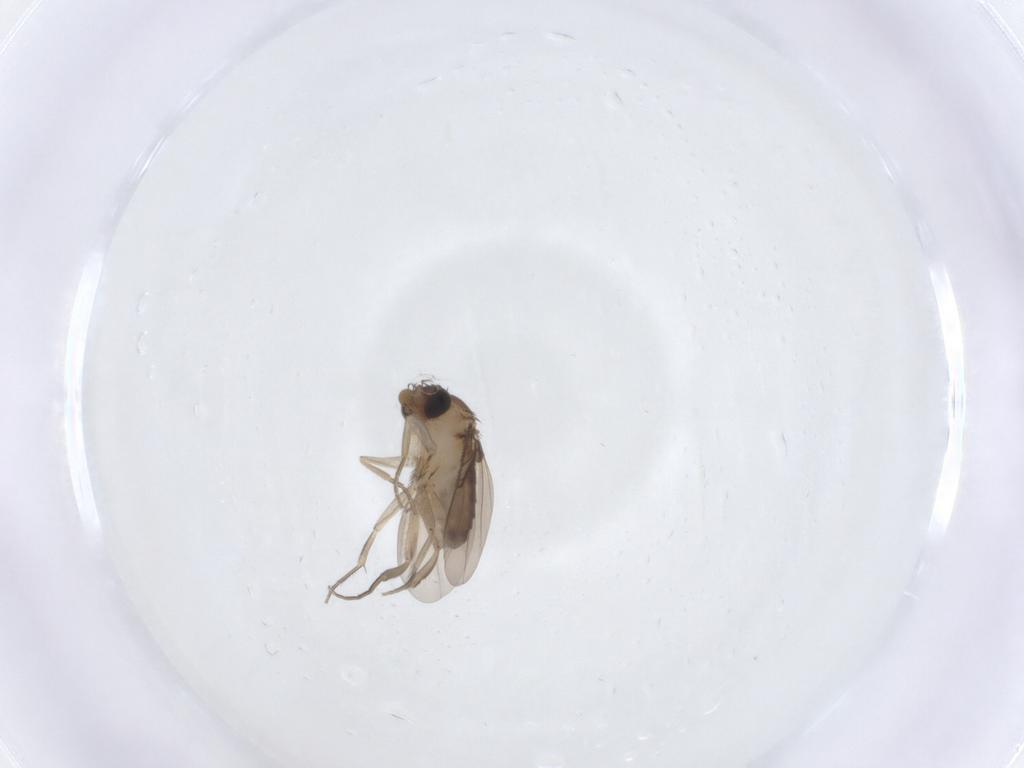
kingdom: Animalia
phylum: Arthropoda
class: Insecta
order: Diptera
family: Phoridae
